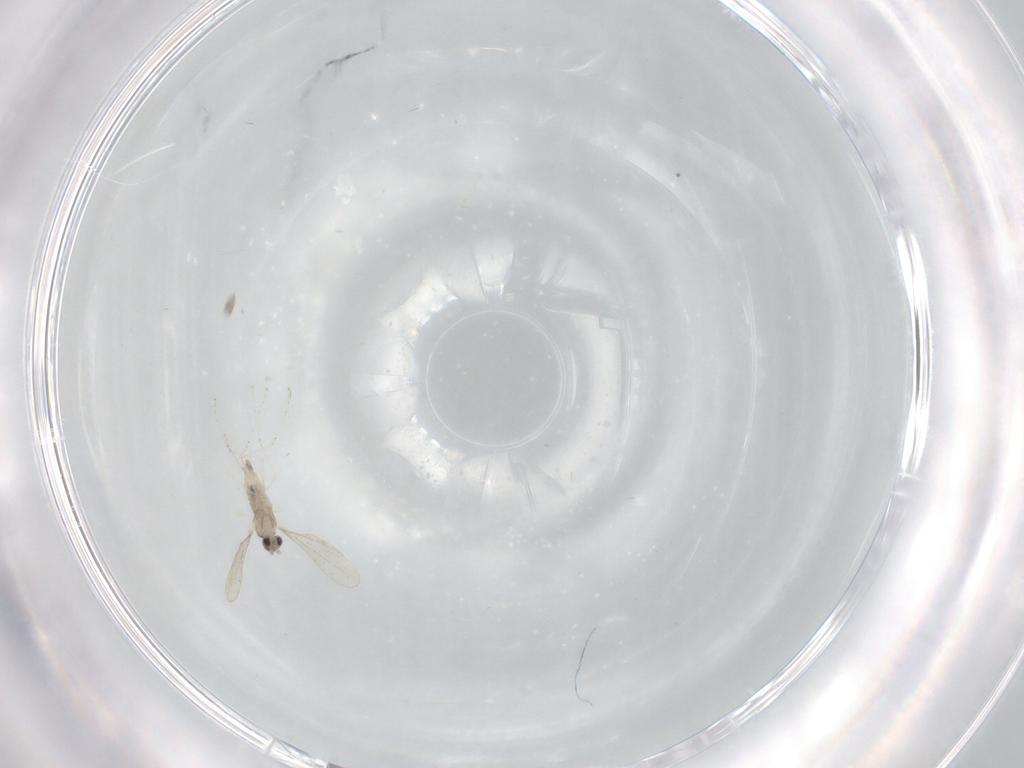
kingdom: Animalia
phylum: Arthropoda
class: Insecta
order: Diptera
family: Cecidomyiidae
